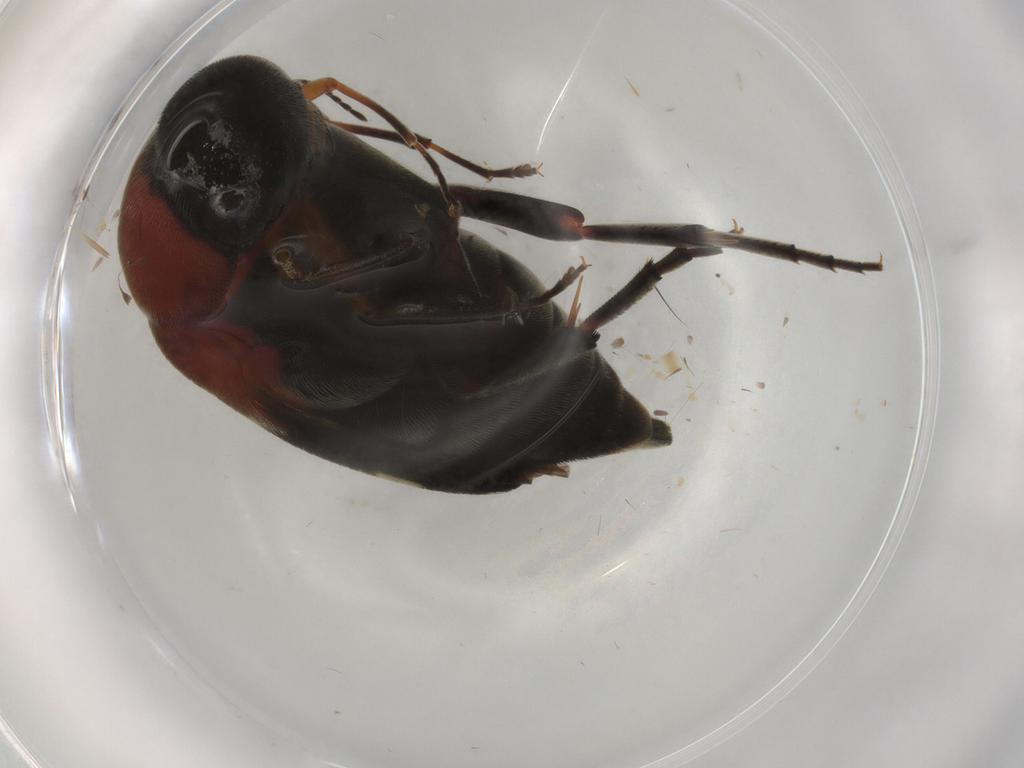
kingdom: Animalia
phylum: Arthropoda
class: Insecta
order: Coleoptera
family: Mordellidae
